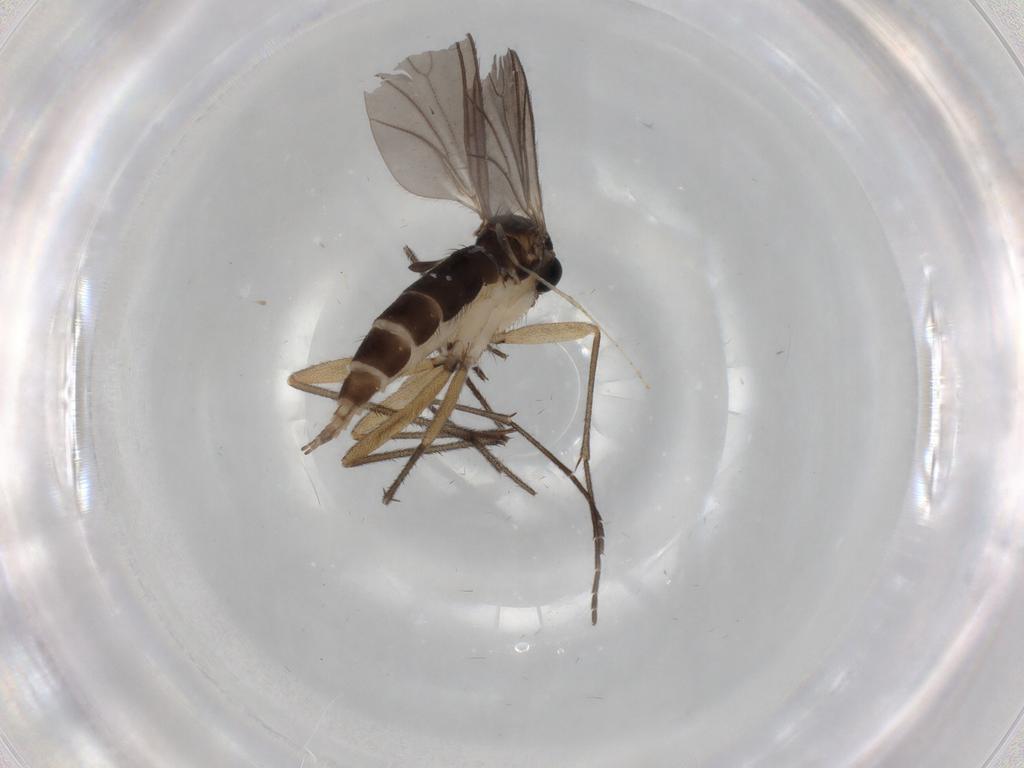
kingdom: Animalia
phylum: Arthropoda
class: Insecta
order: Diptera
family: Sciaridae
